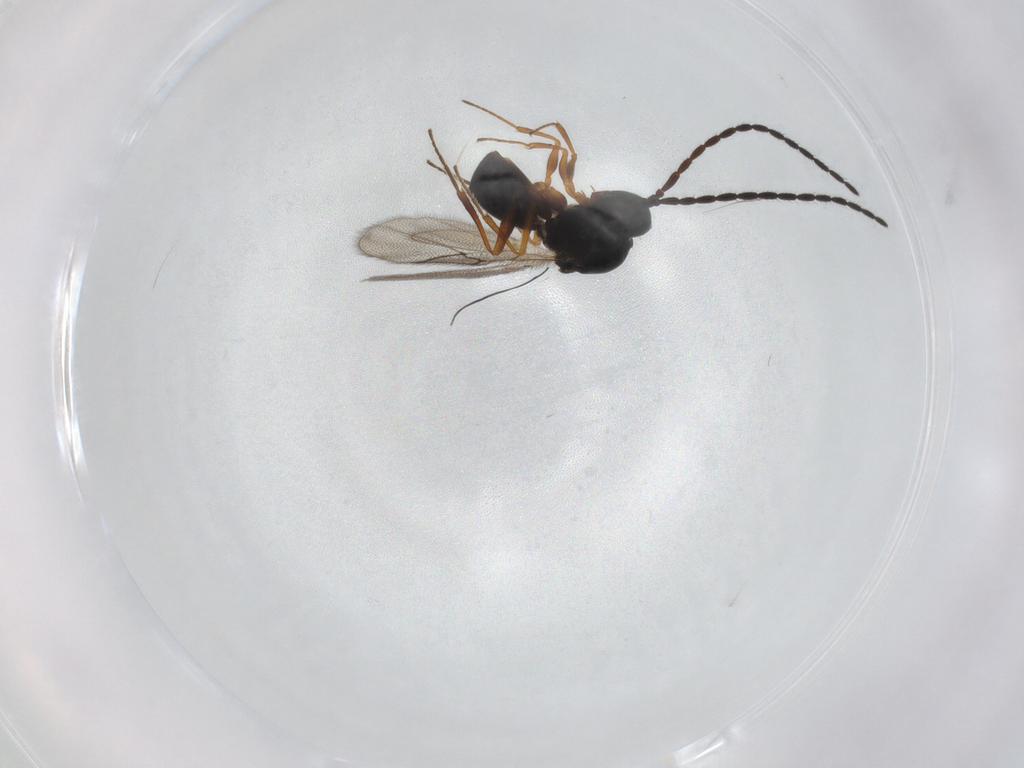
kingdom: Animalia
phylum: Arthropoda
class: Insecta
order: Hymenoptera
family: Figitidae
